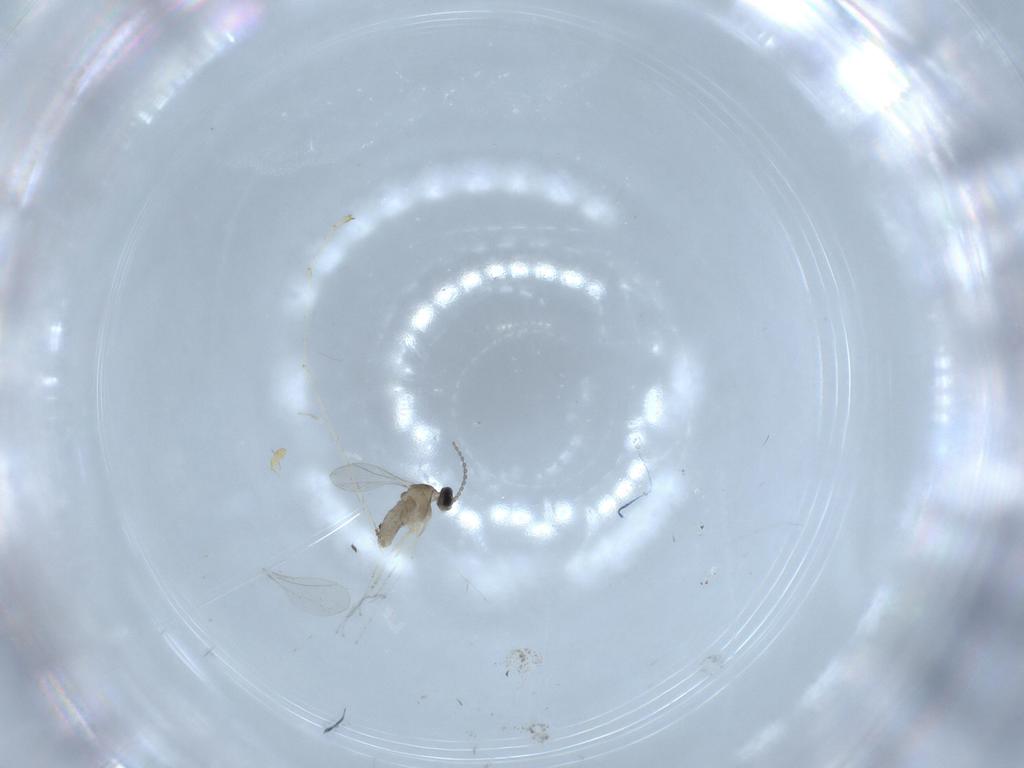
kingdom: Animalia
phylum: Arthropoda
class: Insecta
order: Diptera
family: Cecidomyiidae
